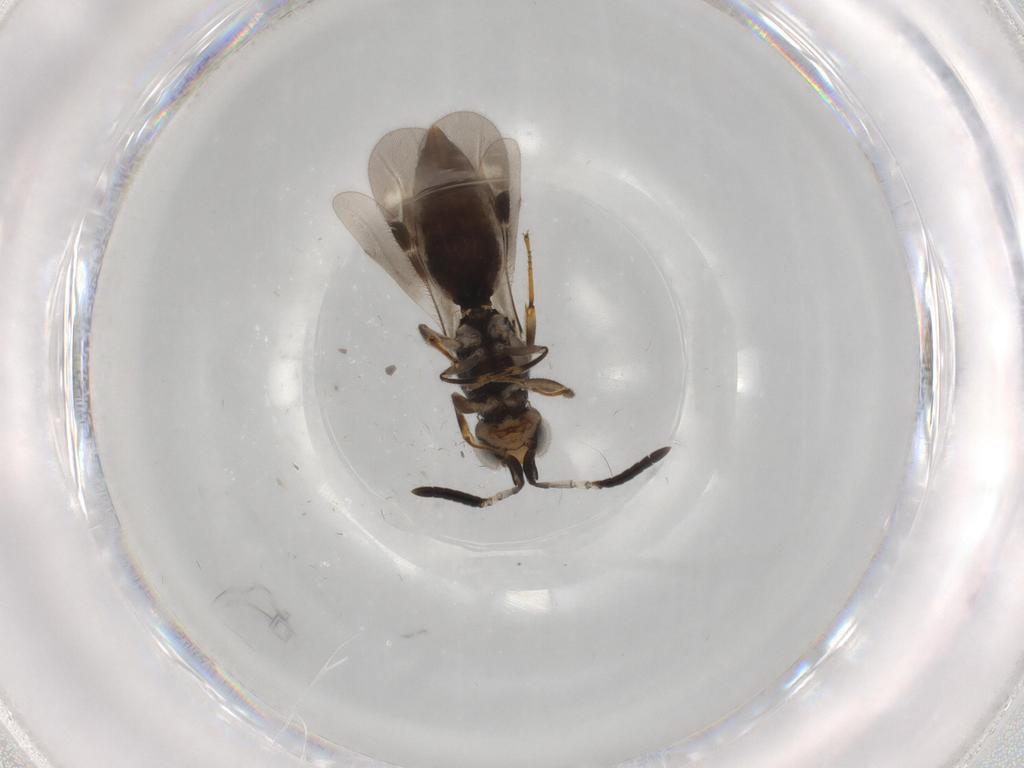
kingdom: Animalia
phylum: Arthropoda
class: Insecta
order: Hymenoptera
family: Megaspilidae
